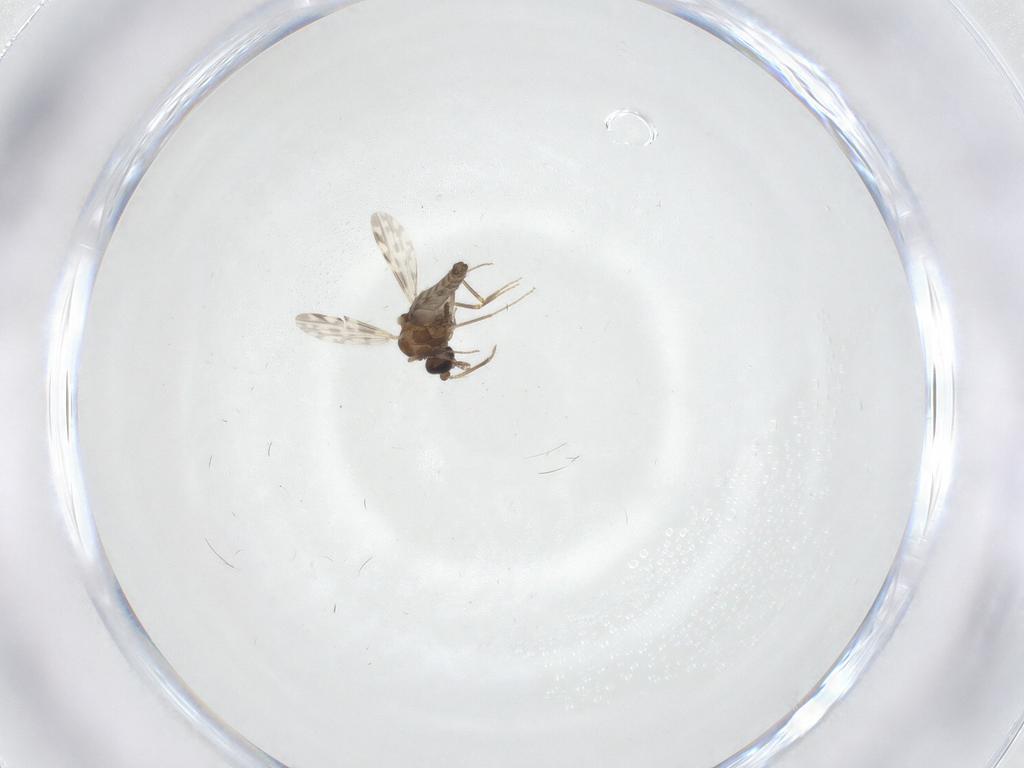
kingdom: Animalia
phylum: Arthropoda
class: Insecta
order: Diptera
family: Ceratopogonidae
